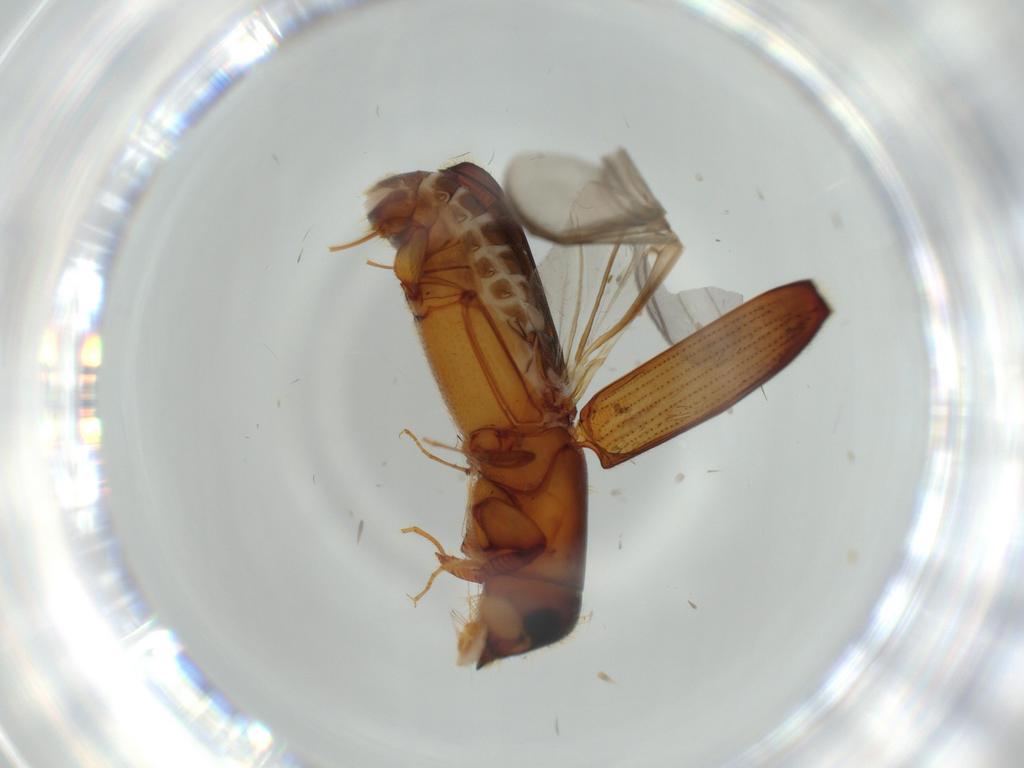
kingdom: Animalia
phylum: Arthropoda
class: Insecta
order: Coleoptera
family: Curculionidae
